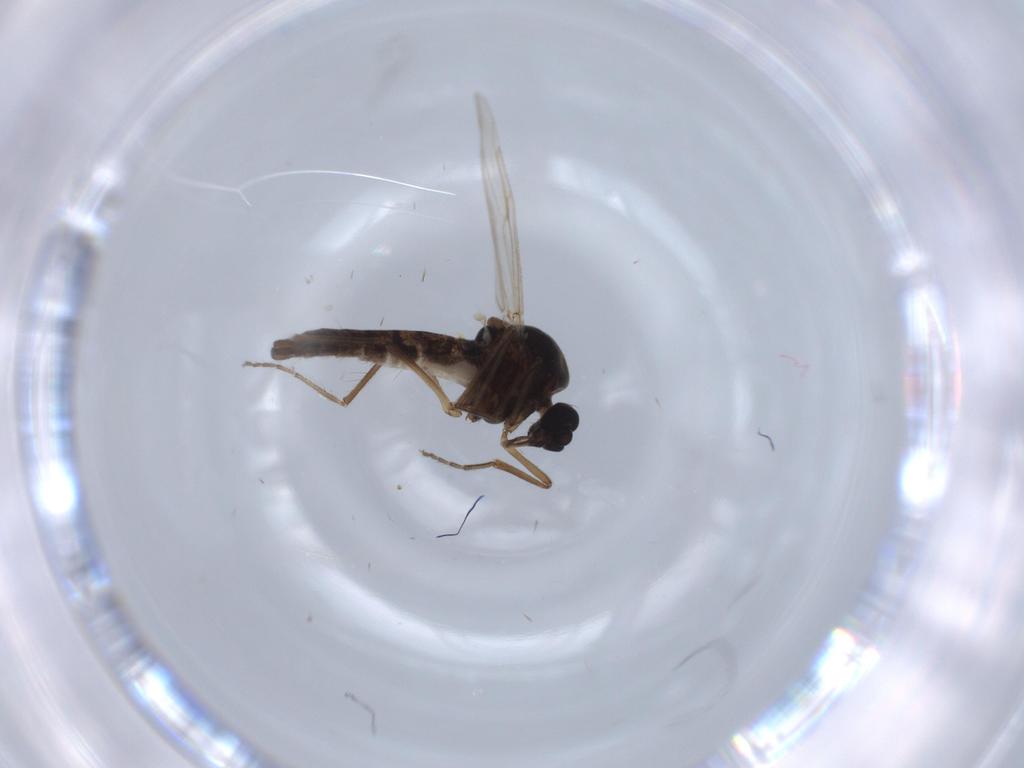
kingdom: Animalia
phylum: Arthropoda
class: Insecta
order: Diptera
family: Ceratopogonidae
